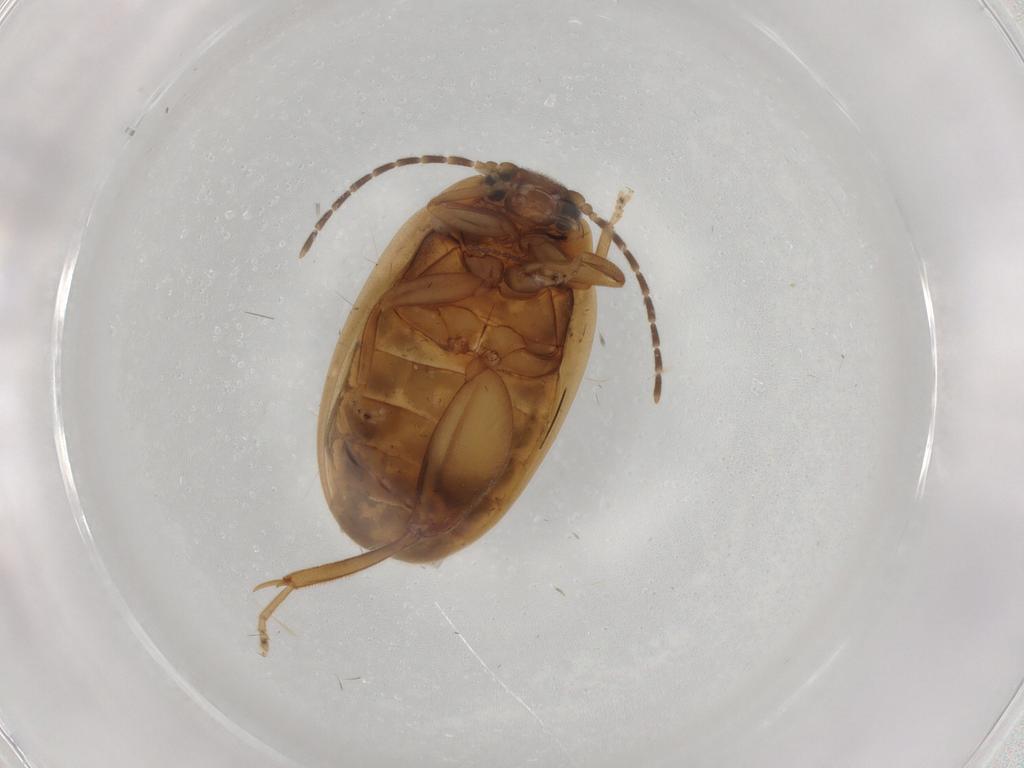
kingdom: Animalia
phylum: Arthropoda
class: Insecta
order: Coleoptera
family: Scirtidae
